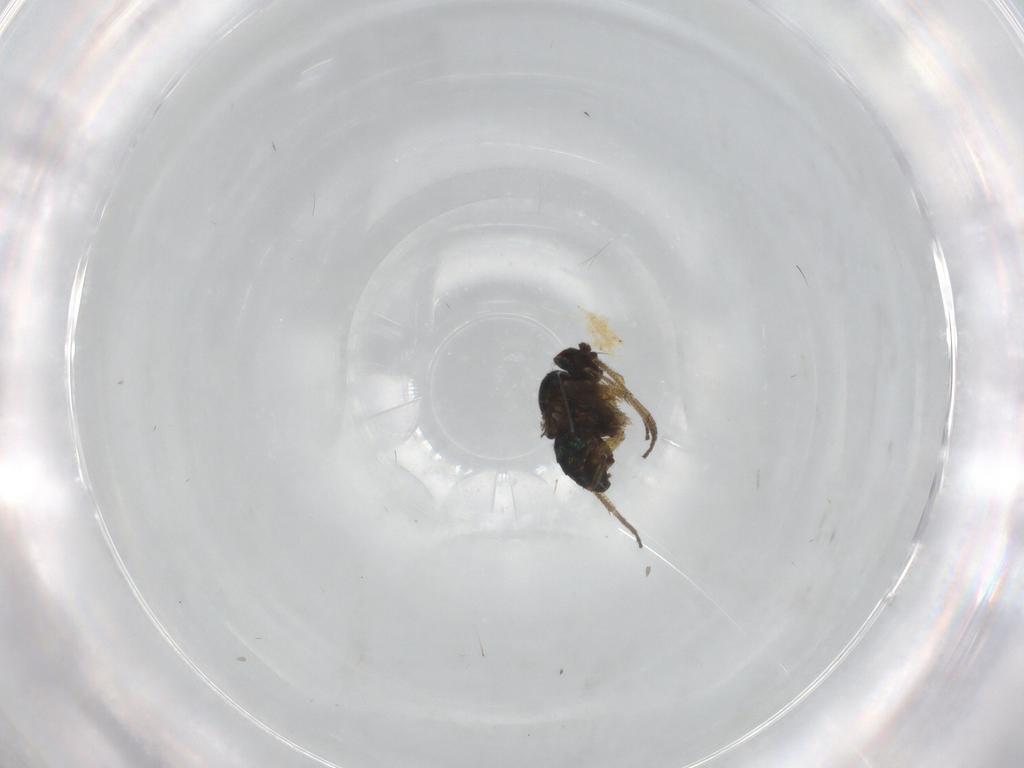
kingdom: Animalia
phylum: Arthropoda
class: Insecta
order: Diptera
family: Cecidomyiidae
